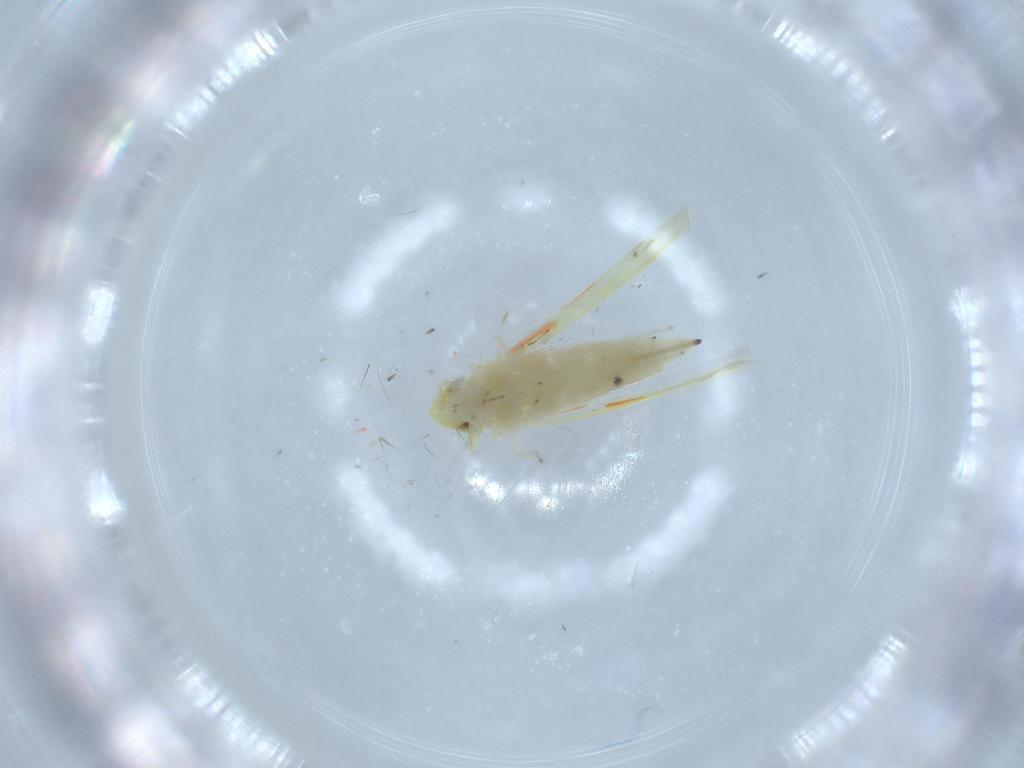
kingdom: Animalia
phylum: Arthropoda
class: Insecta
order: Hemiptera
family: Cicadellidae
